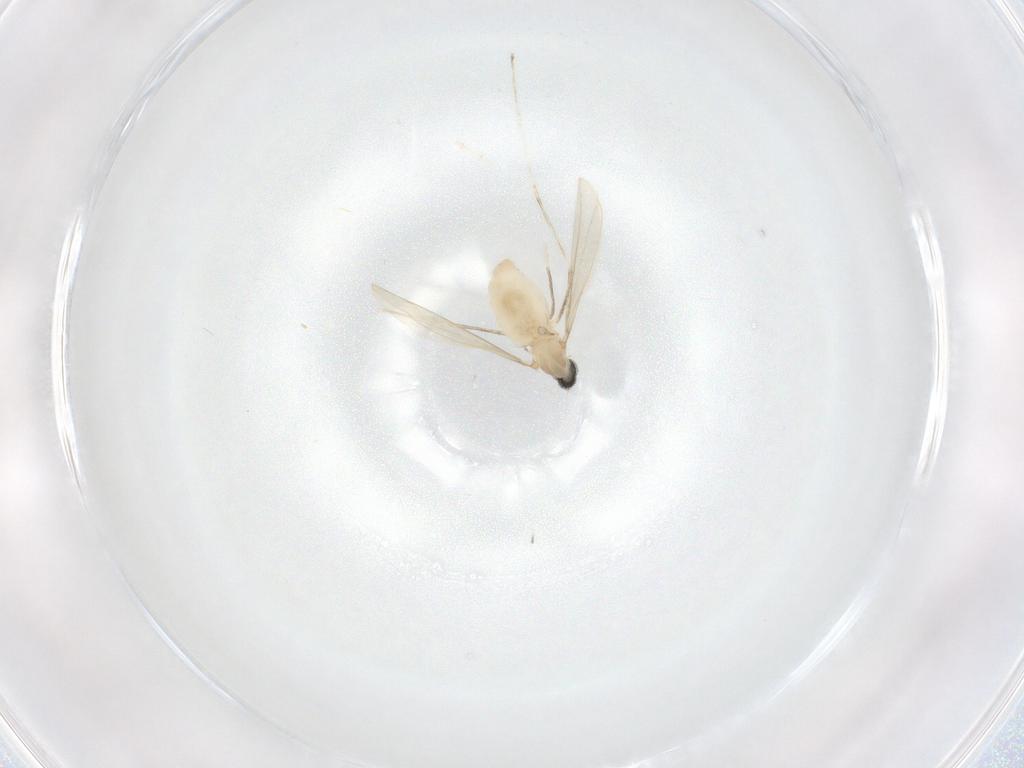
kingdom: Animalia
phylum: Arthropoda
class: Insecta
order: Diptera
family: Cecidomyiidae
